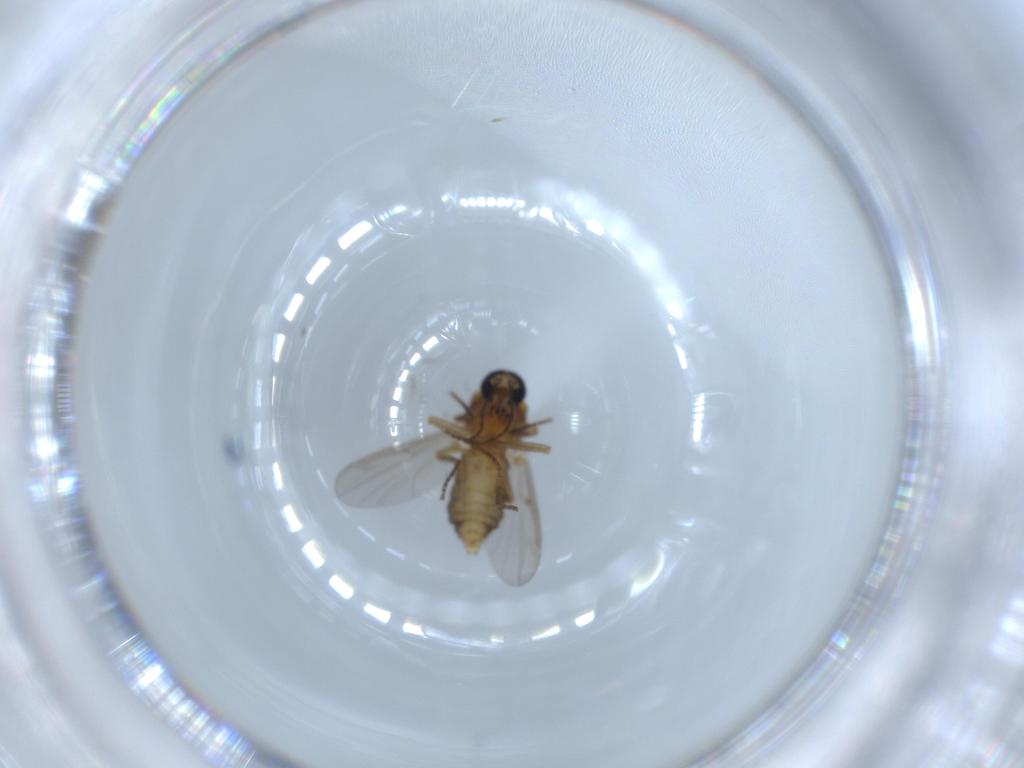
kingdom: Animalia
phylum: Arthropoda
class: Insecta
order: Diptera
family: Ceratopogonidae
